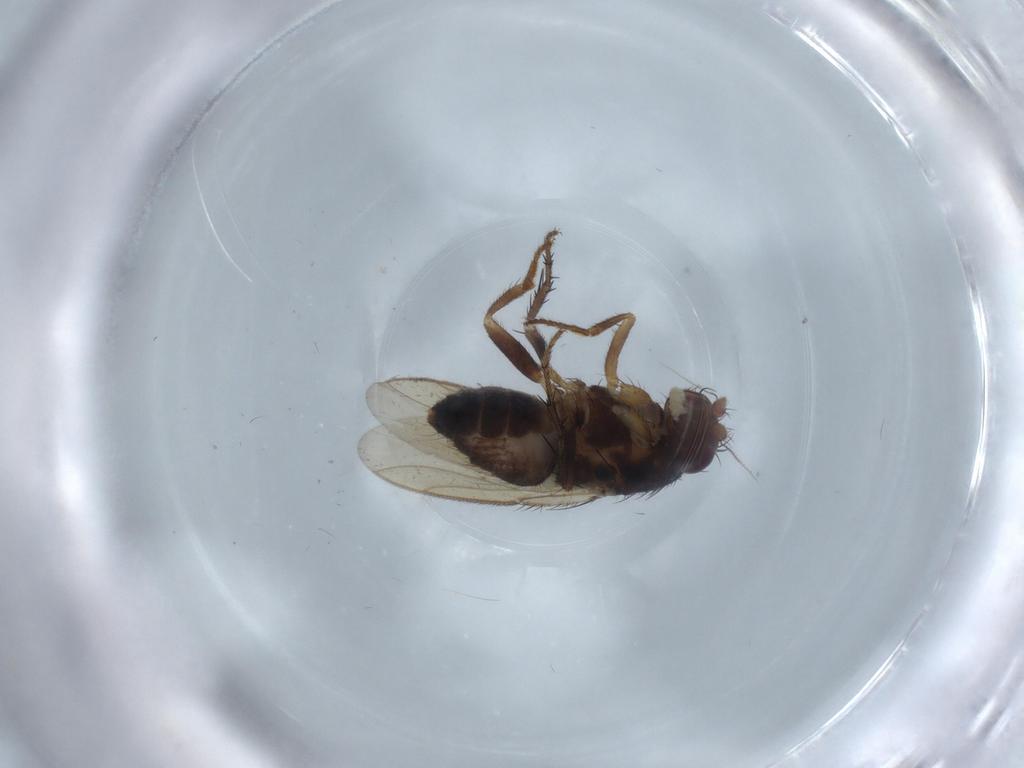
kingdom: Animalia
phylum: Arthropoda
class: Insecta
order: Diptera
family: Sphaeroceridae
